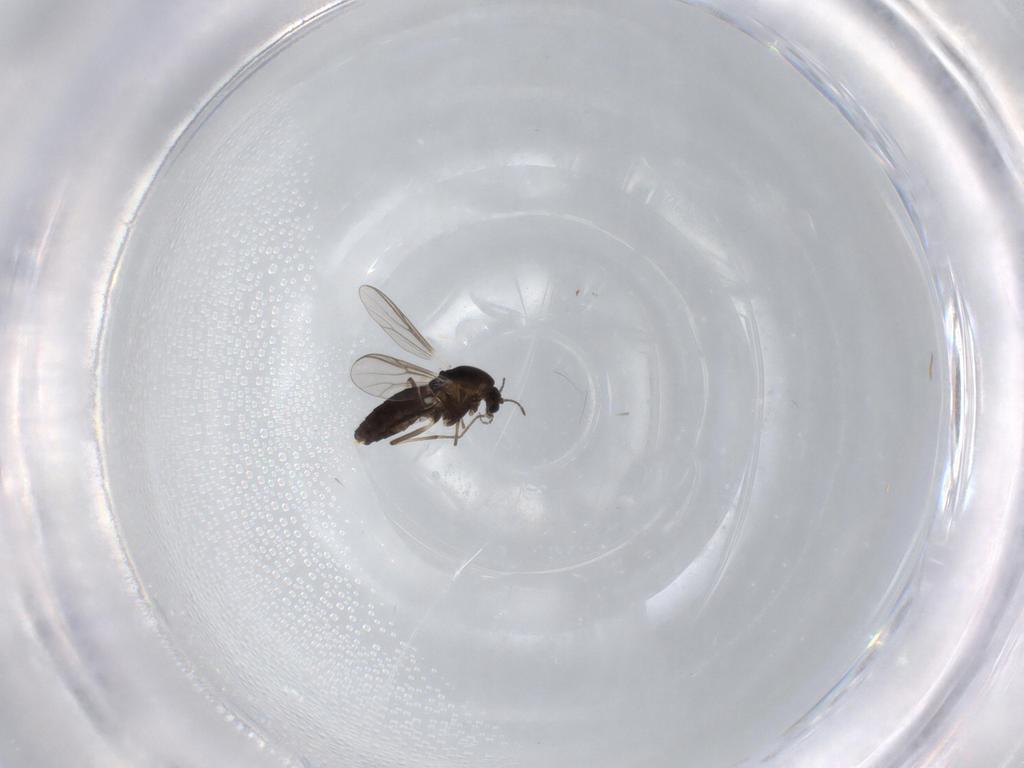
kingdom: Animalia
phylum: Arthropoda
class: Insecta
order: Diptera
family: Chironomidae
